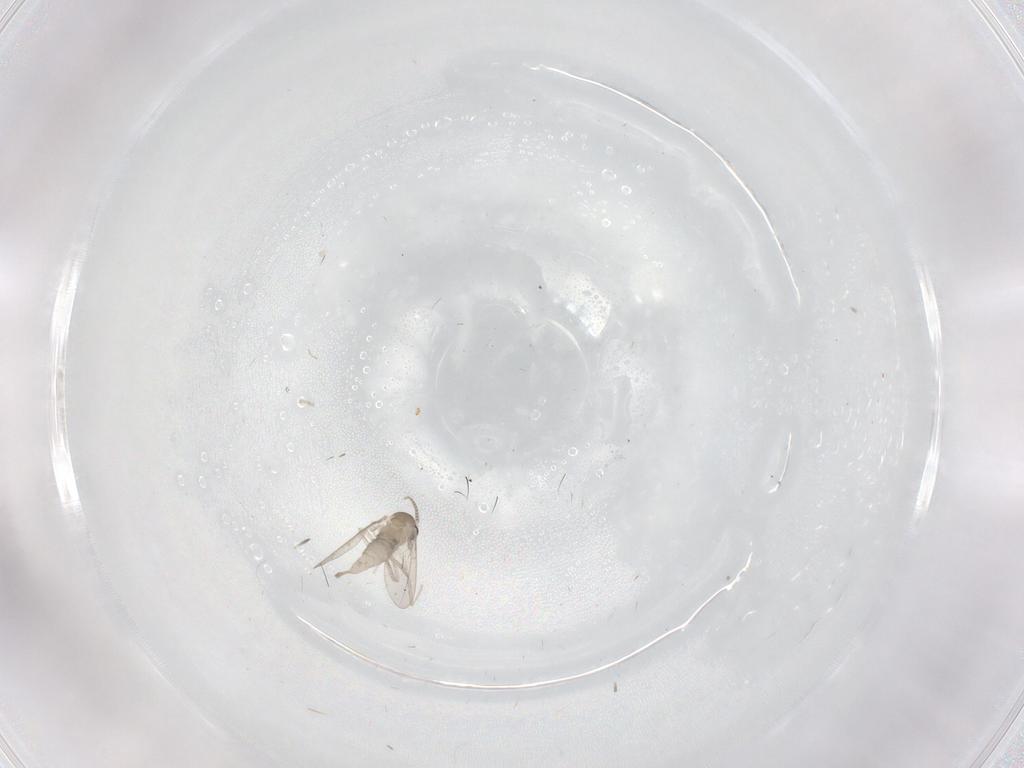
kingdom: Animalia
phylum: Arthropoda
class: Insecta
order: Diptera
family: Cecidomyiidae
